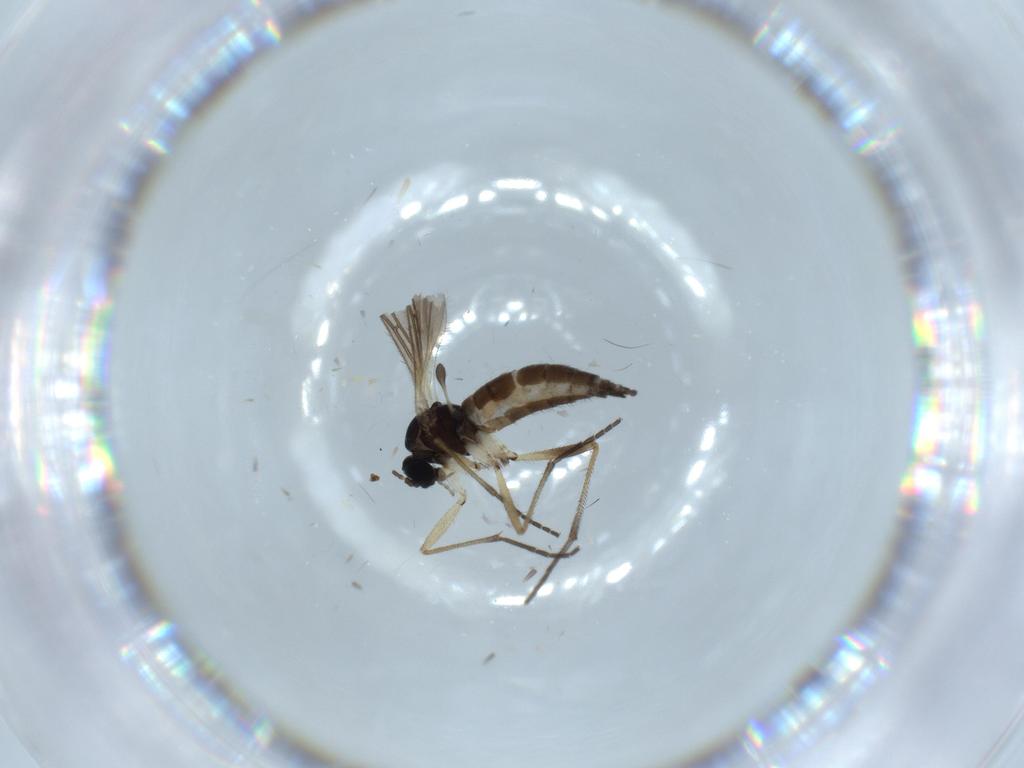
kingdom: Animalia
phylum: Arthropoda
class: Insecta
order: Diptera
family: Sciaridae
